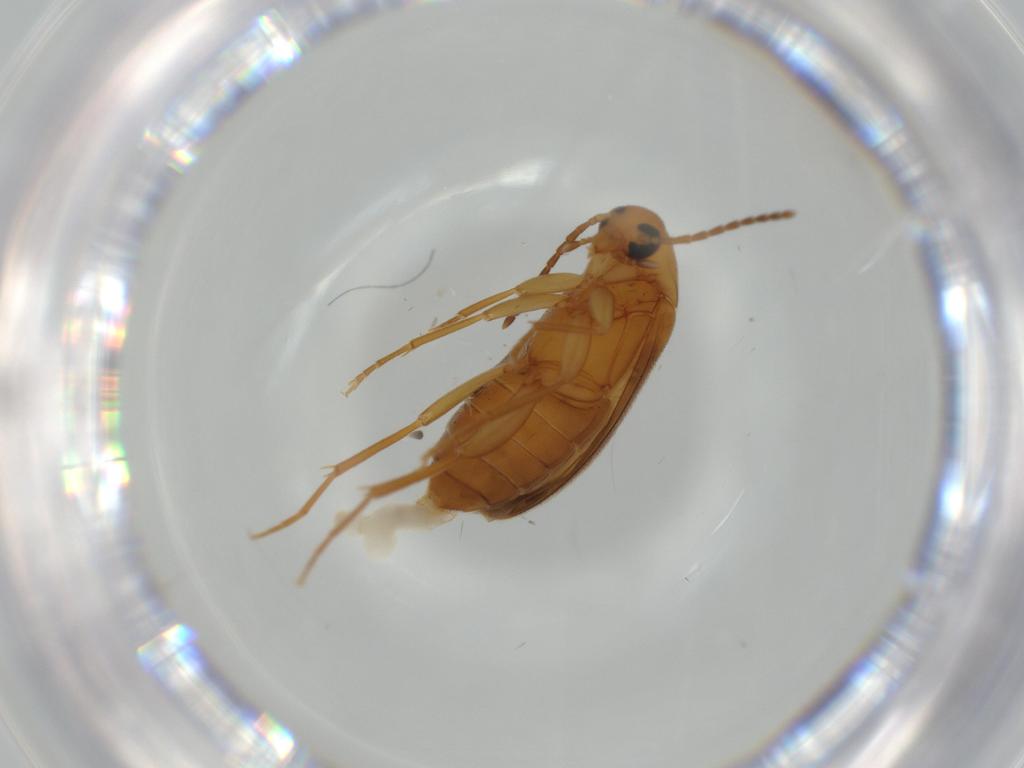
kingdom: Animalia
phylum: Arthropoda
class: Insecta
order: Coleoptera
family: Scraptiidae
